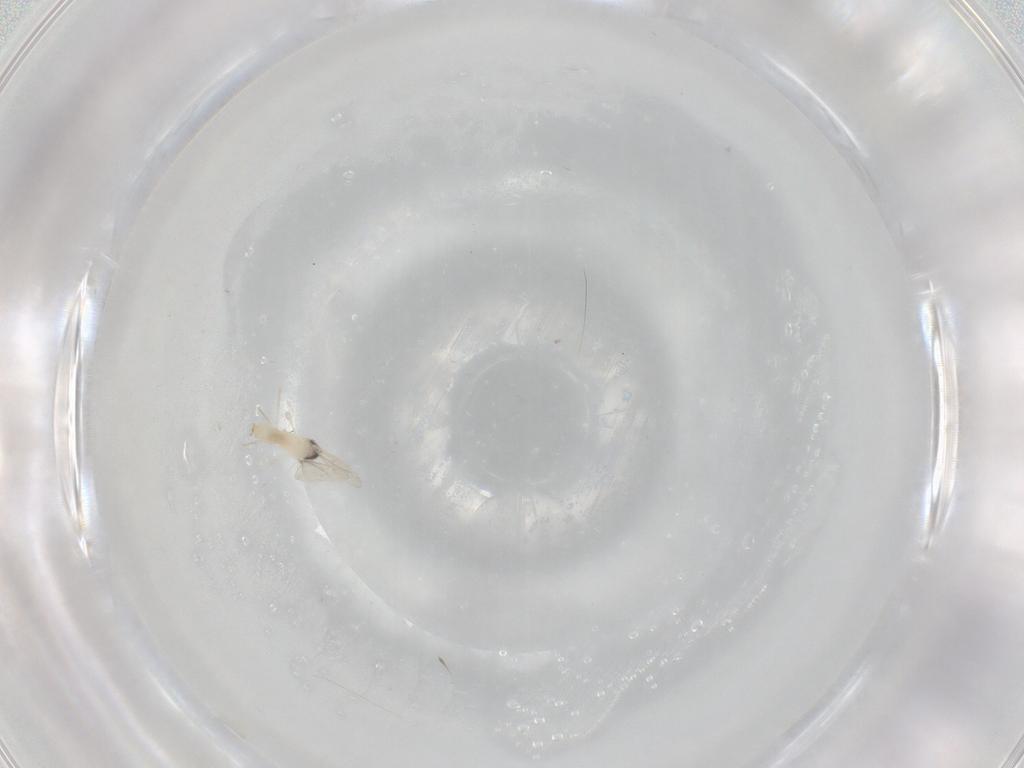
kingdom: Animalia
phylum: Arthropoda
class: Insecta
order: Diptera
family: Cecidomyiidae
